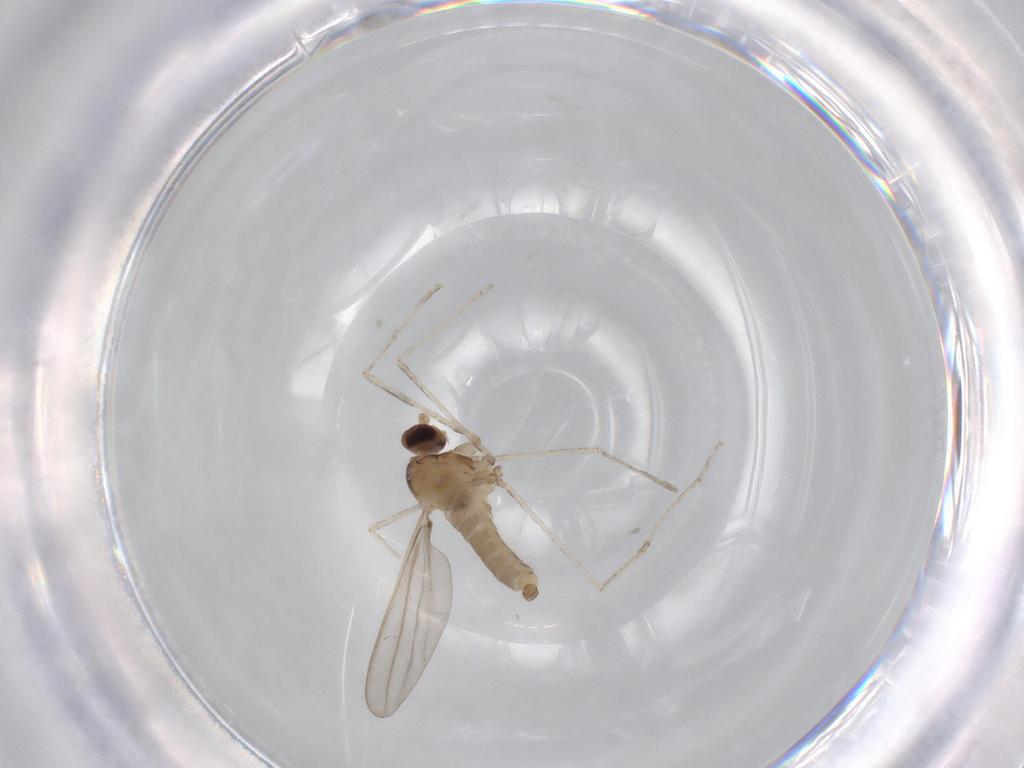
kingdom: Animalia
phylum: Arthropoda
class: Insecta
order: Diptera
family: Cecidomyiidae
